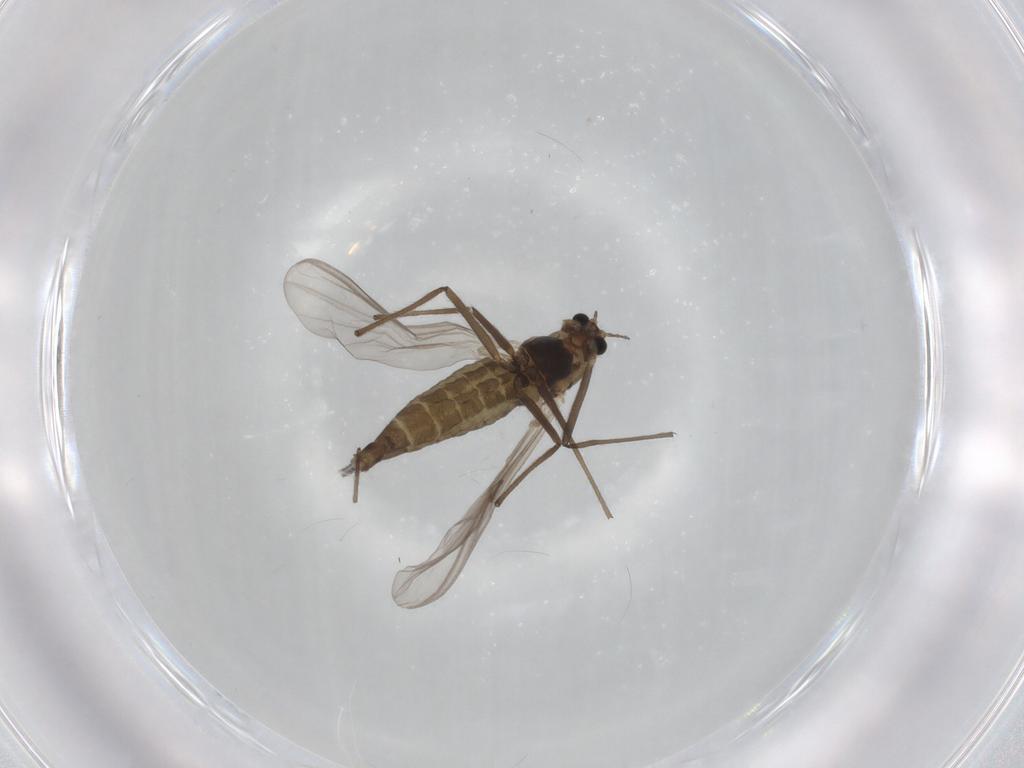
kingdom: Animalia
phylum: Arthropoda
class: Insecta
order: Diptera
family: Chironomidae
